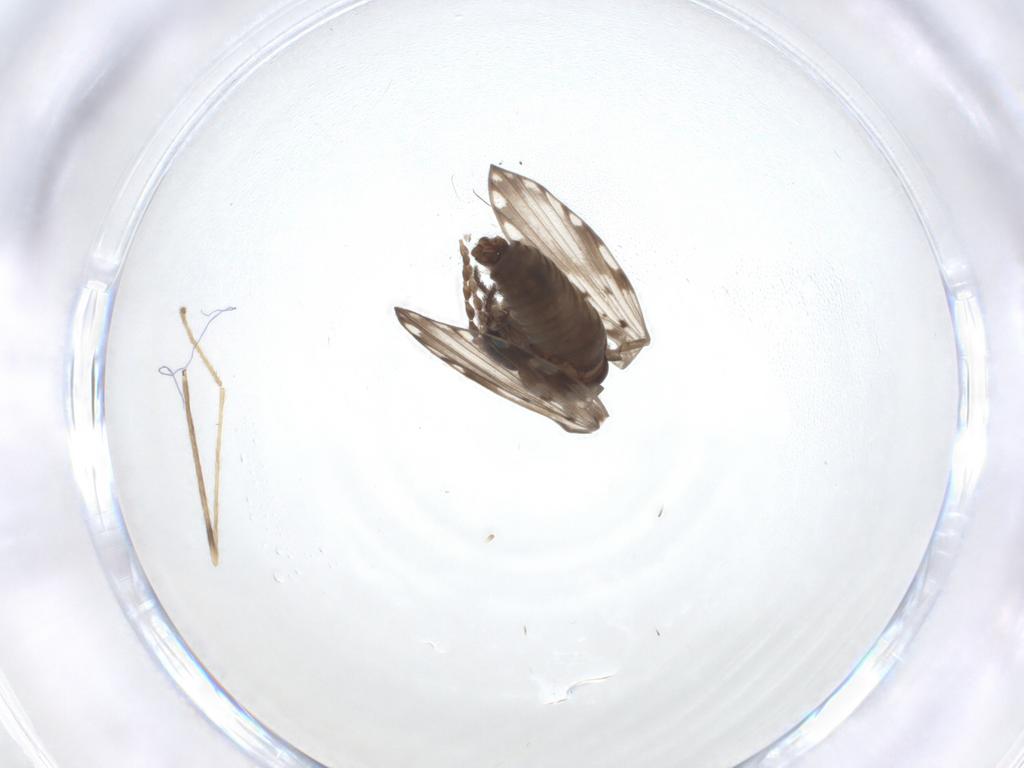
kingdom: Animalia
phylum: Arthropoda
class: Insecta
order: Diptera
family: Psychodidae
